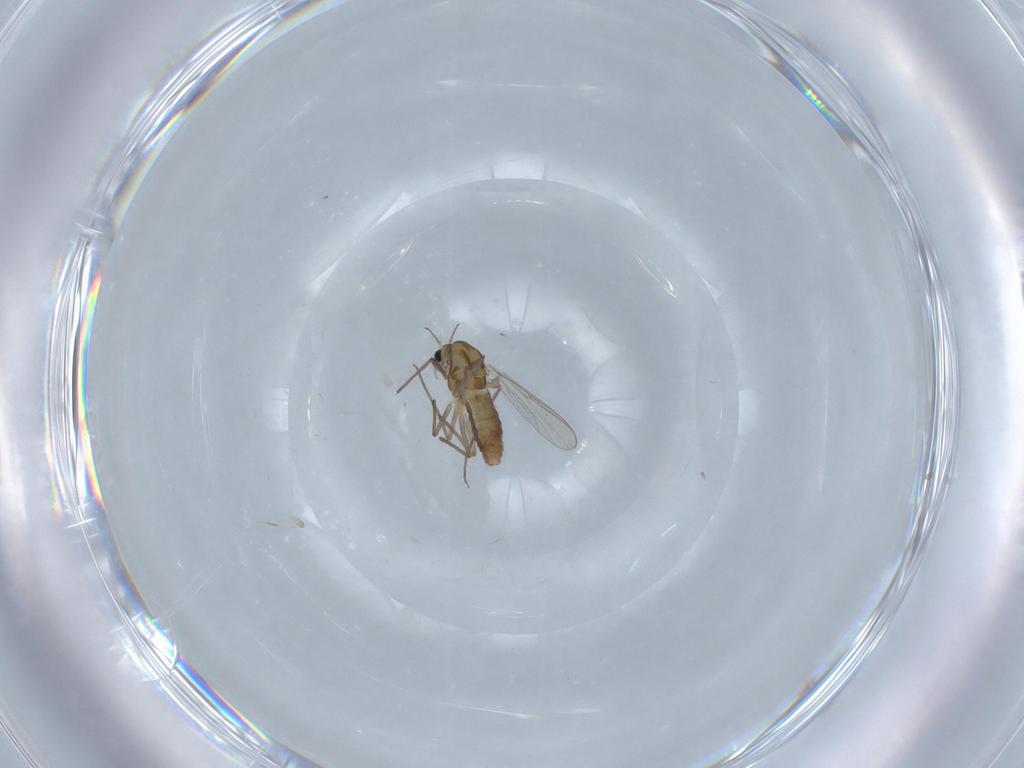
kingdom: Animalia
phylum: Arthropoda
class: Insecta
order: Diptera
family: Chironomidae
